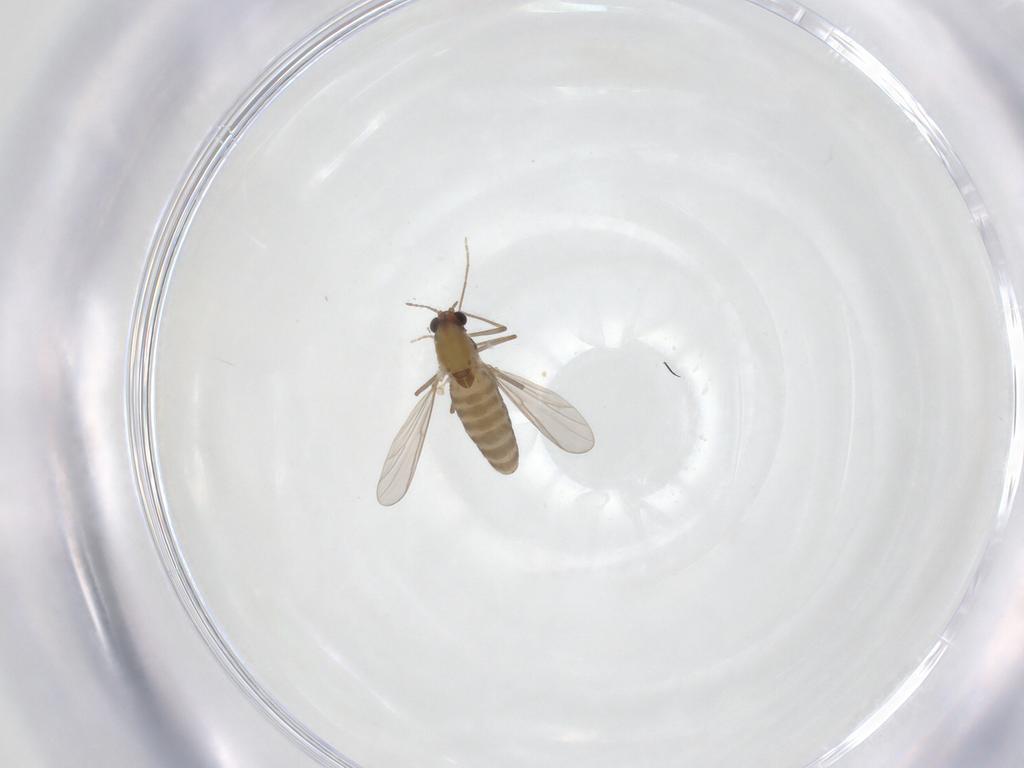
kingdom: Animalia
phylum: Arthropoda
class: Insecta
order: Diptera
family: Chironomidae
